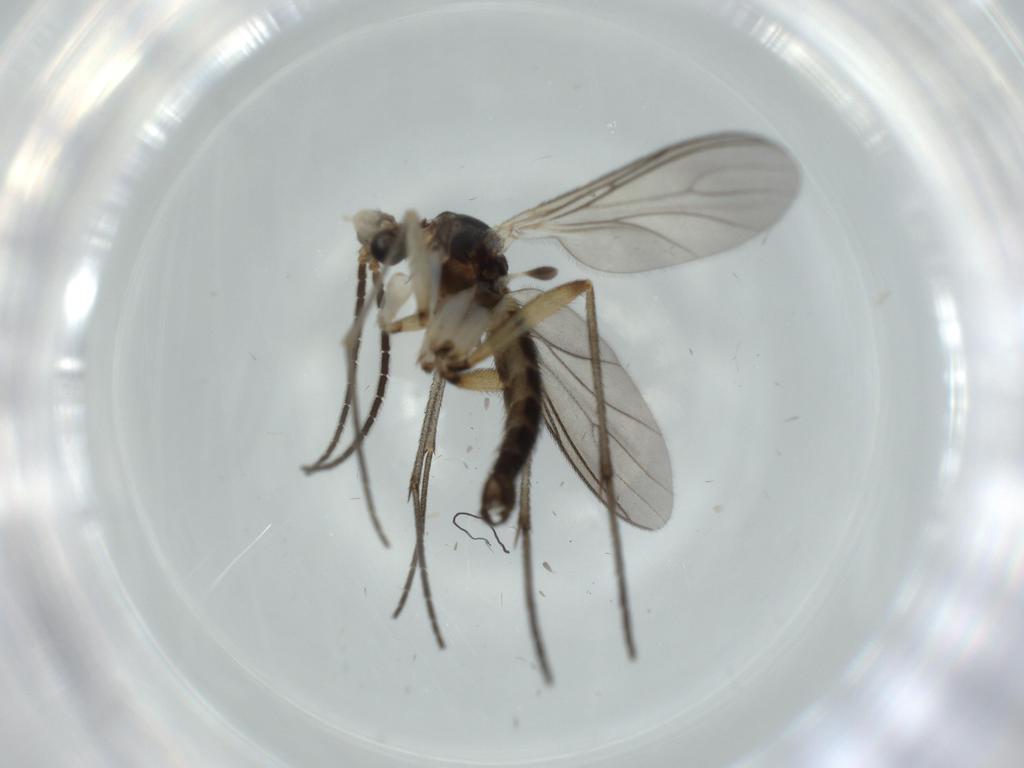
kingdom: Animalia
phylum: Arthropoda
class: Insecta
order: Diptera
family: Sciaridae
